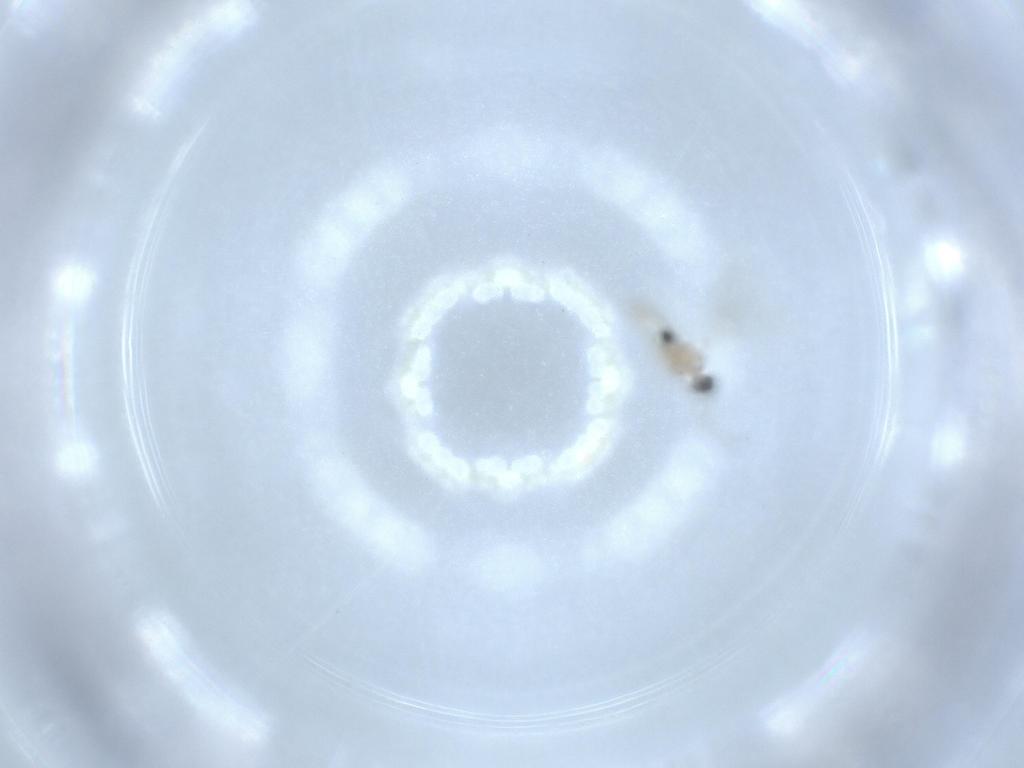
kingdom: Animalia
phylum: Arthropoda
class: Insecta
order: Diptera
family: Cecidomyiidae
